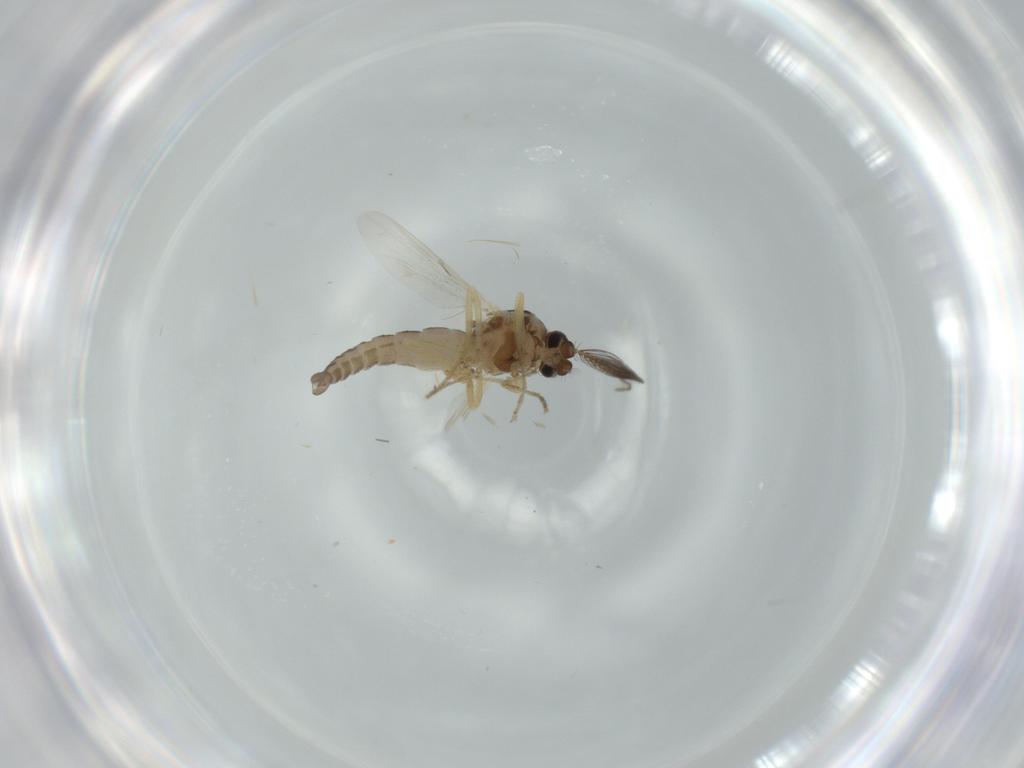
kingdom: Animalia
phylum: Arthropoda
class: Insecta
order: Diptera
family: Ceratopogonidae
